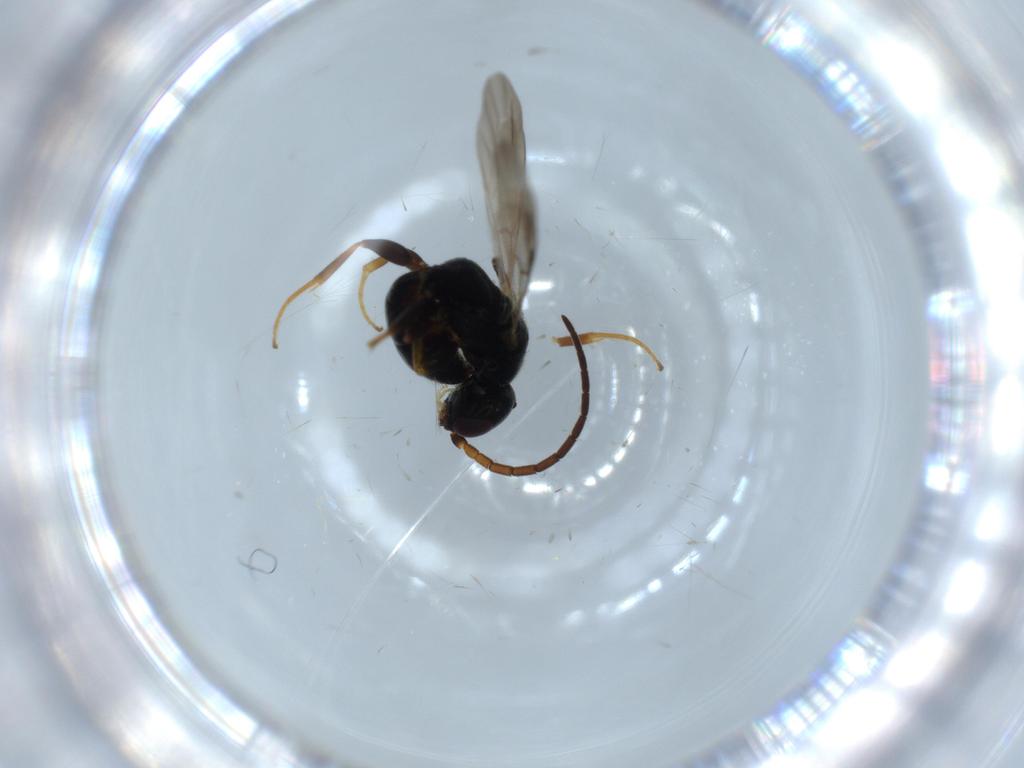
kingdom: Animalia
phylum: Arthropoda
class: Insecta
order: Hymenoptera
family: Bethylidae
